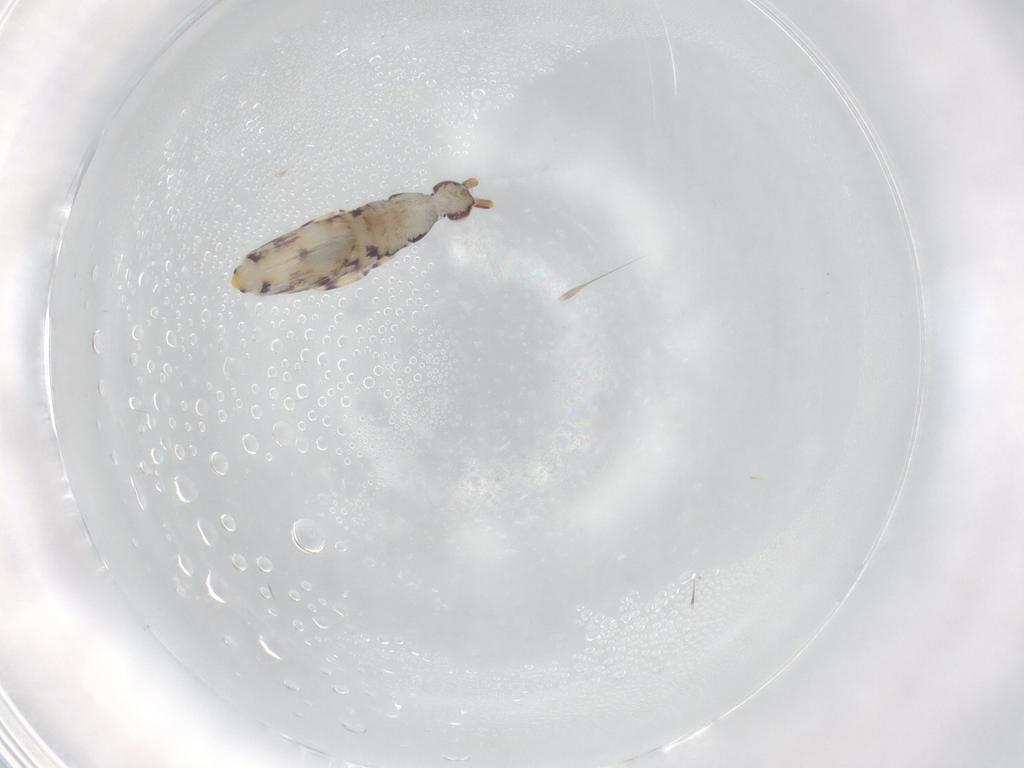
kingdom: Animalia
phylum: Arthropoda
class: Collembola
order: Entomobryomorpha
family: Entomobryidae
